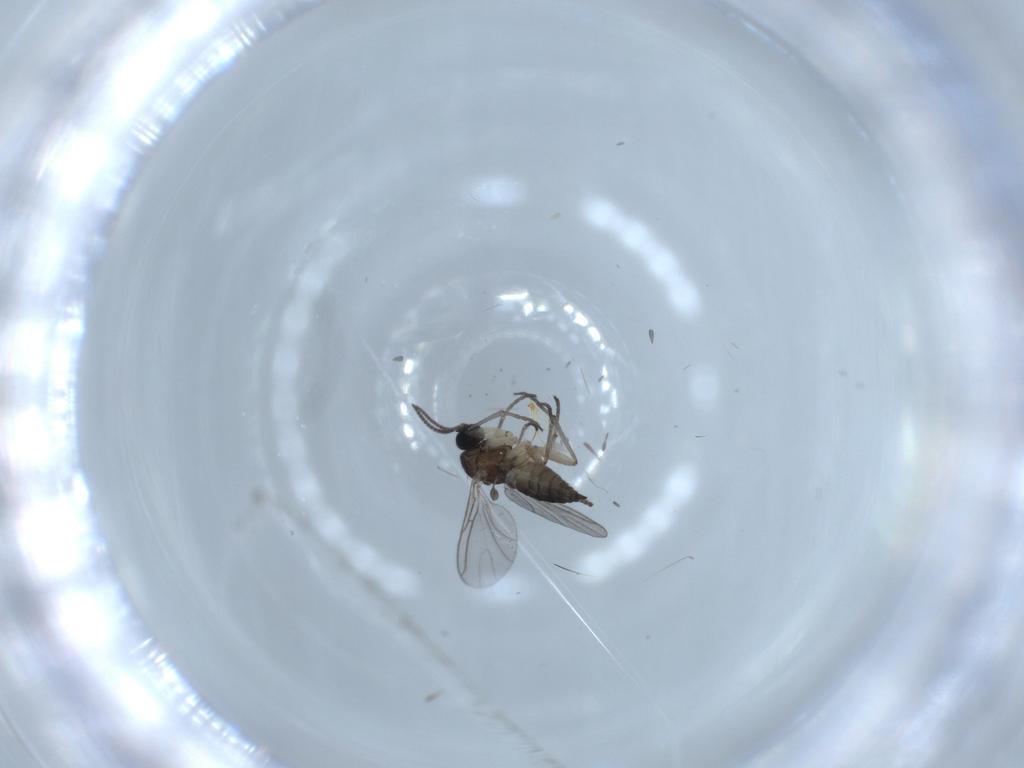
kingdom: Animalia
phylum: Arthropoda
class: Insecta
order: Diptera
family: Sciaridae
